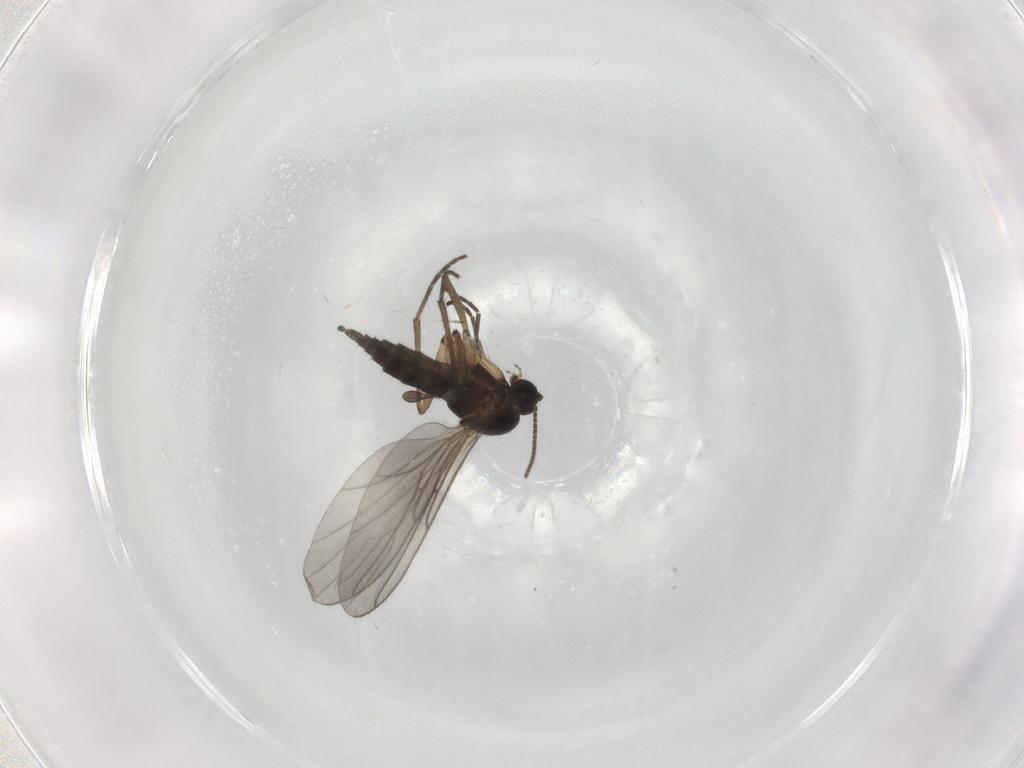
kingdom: Animalia
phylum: Arthropoda
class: Insecta
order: Diptera
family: Sciaridae
